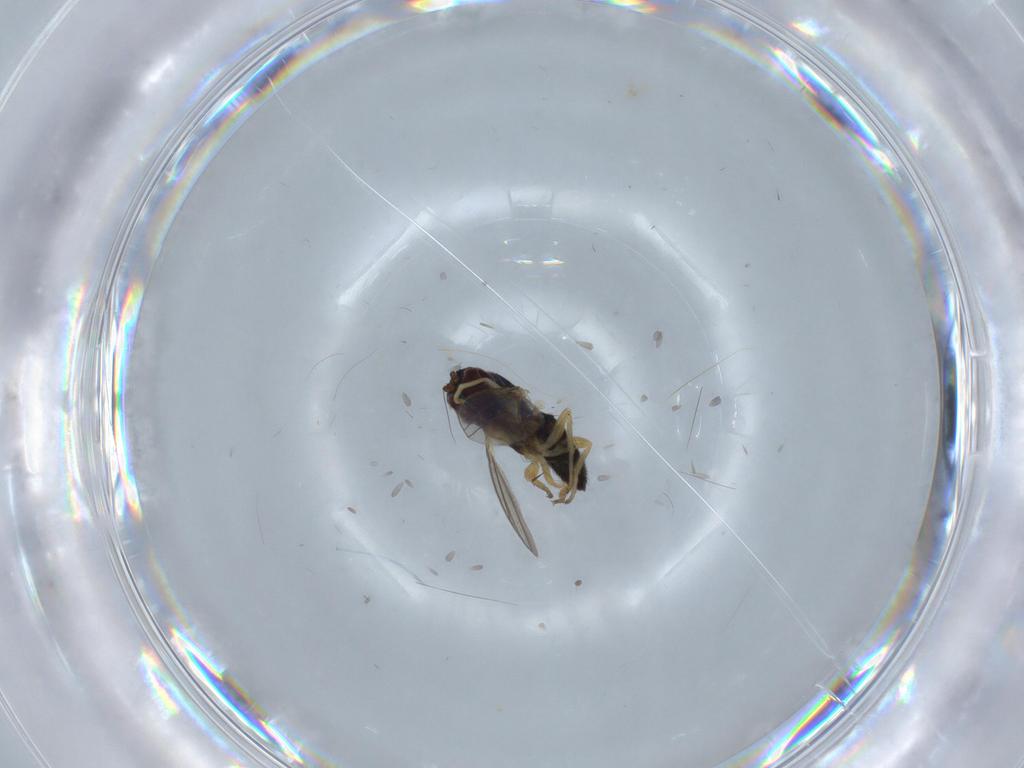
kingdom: Animalia
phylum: Arthropoda
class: Insecta
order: Diptera
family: Dolichopodidae
